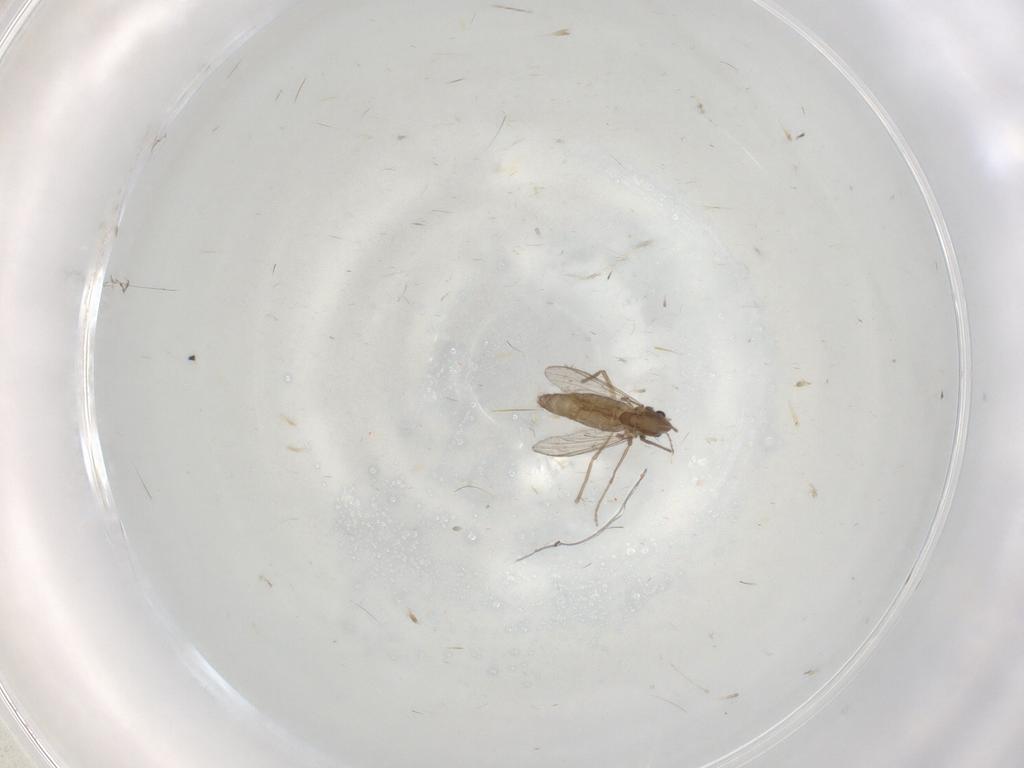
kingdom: Animalia
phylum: Arthropoda
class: Insecta
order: Diptera
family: Chironomidae
